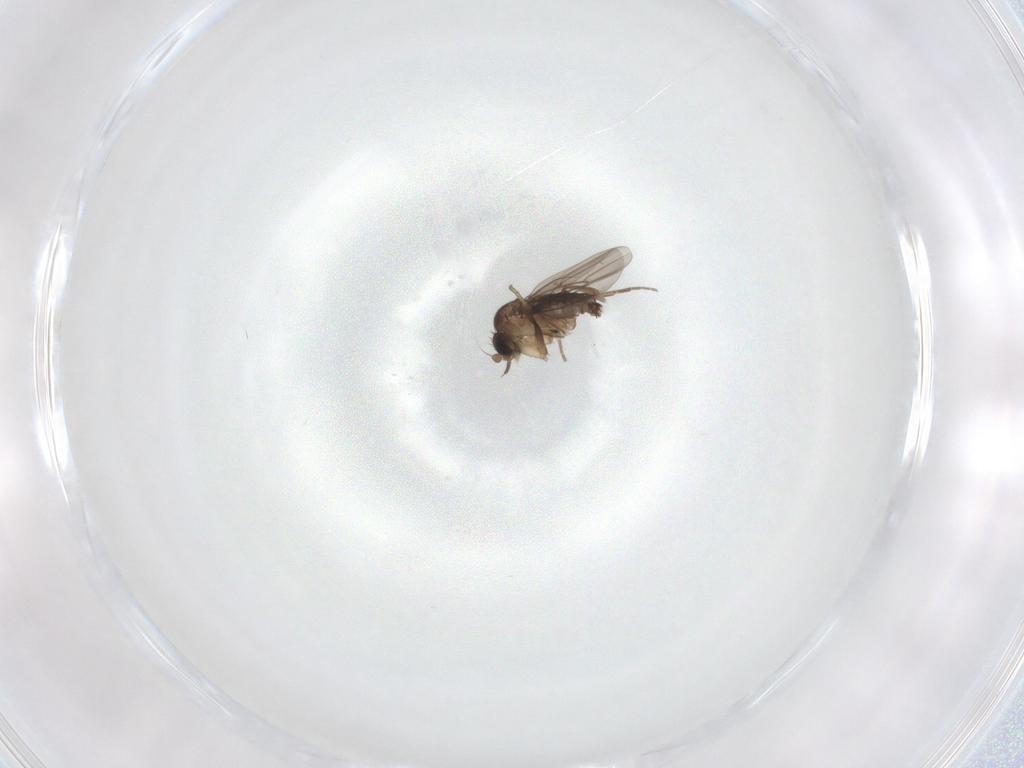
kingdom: Animalia
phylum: Arthropoda
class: Insecta
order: Diptera
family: Phoridae
